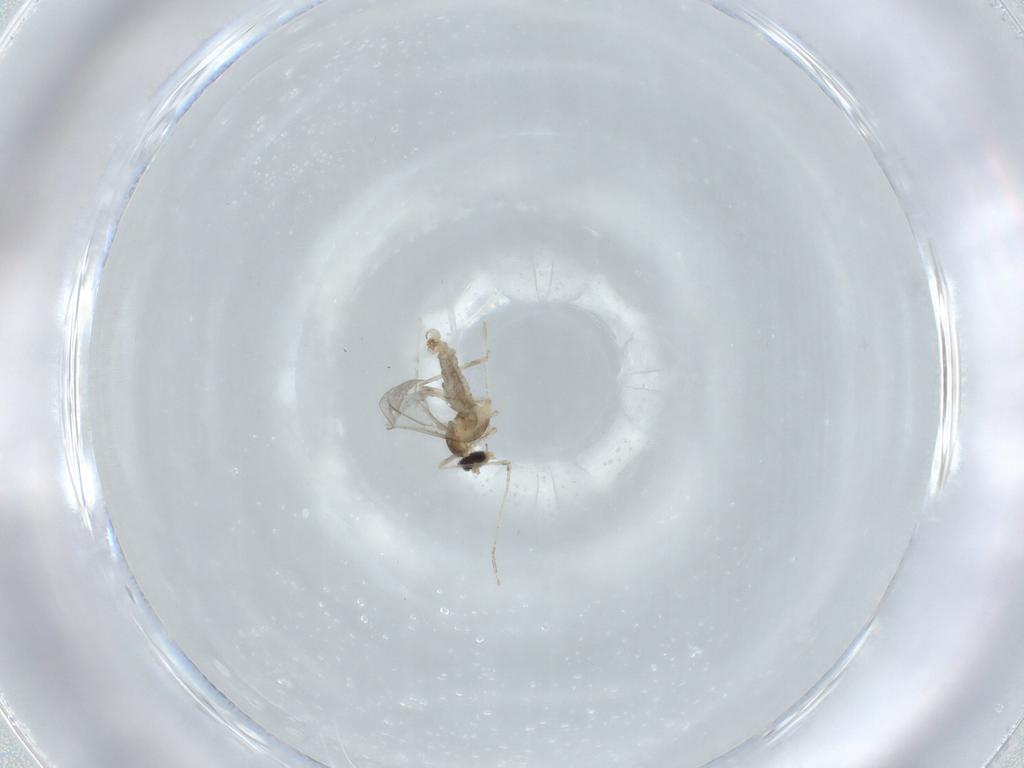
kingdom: Animalia
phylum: Arthropoda
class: Insecta
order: Diptera
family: Cecidomyiidae
